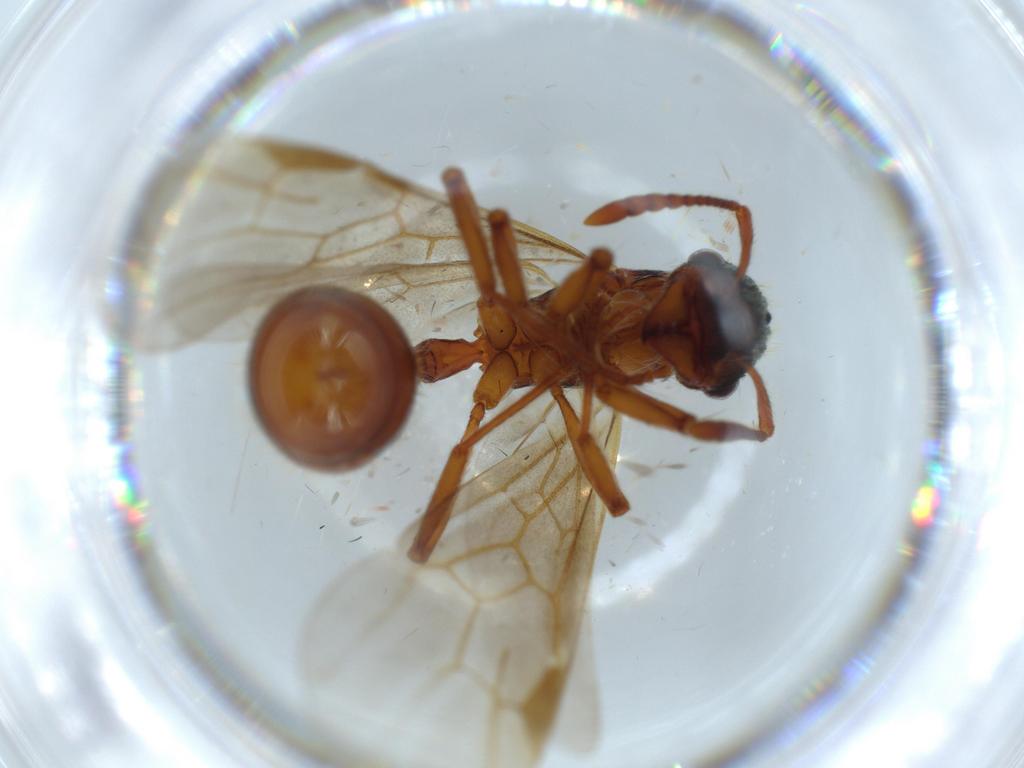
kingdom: Animalia
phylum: Arthropoda
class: Insecta
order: Hymenoptera
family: Formicidae
